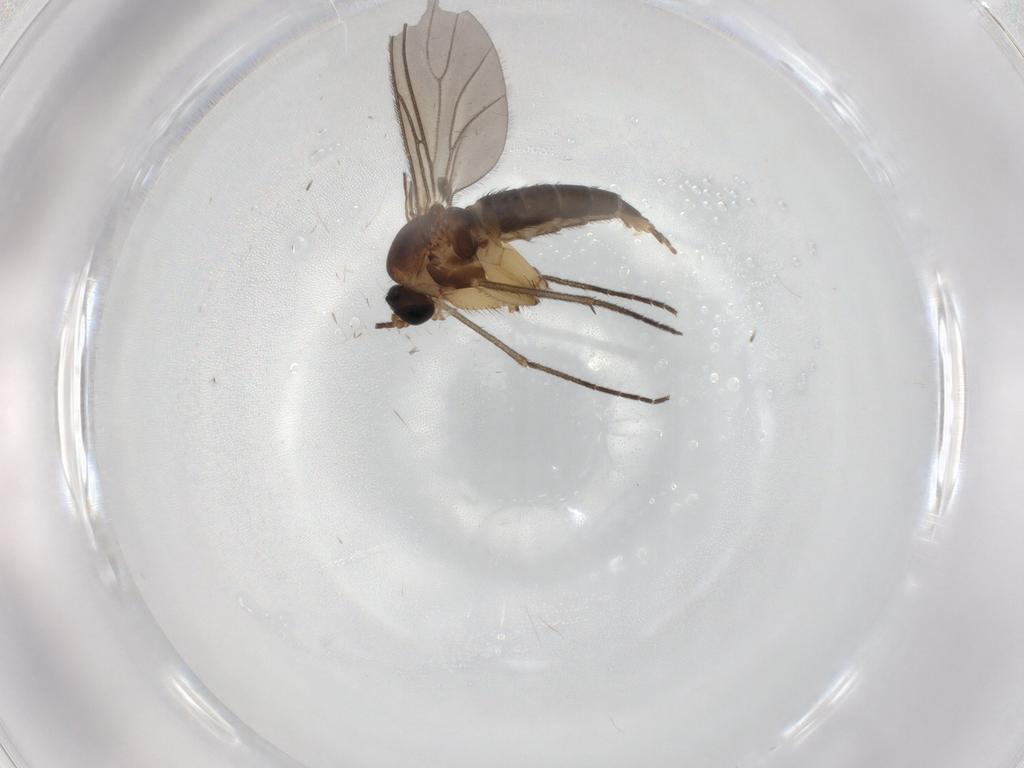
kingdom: Animalia
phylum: Arthropoda
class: Insecta
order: Diptera
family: Sciaridae
